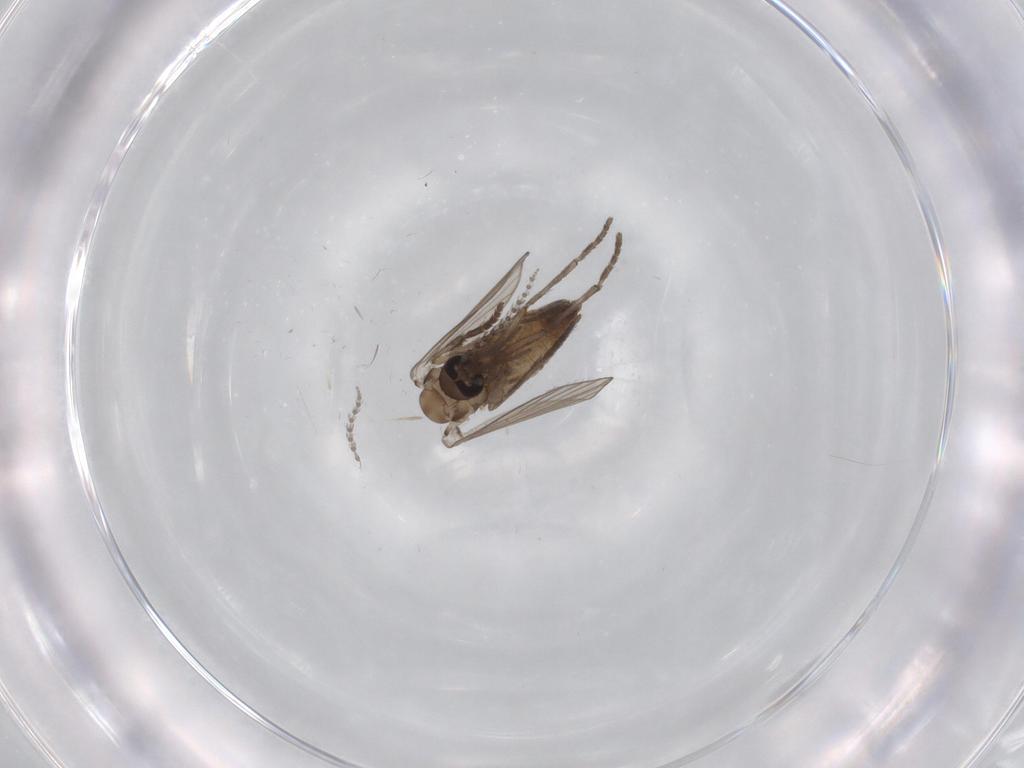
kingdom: Animalia
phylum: Arthropoda
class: Insecta
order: Diptera
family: Psychodidae
